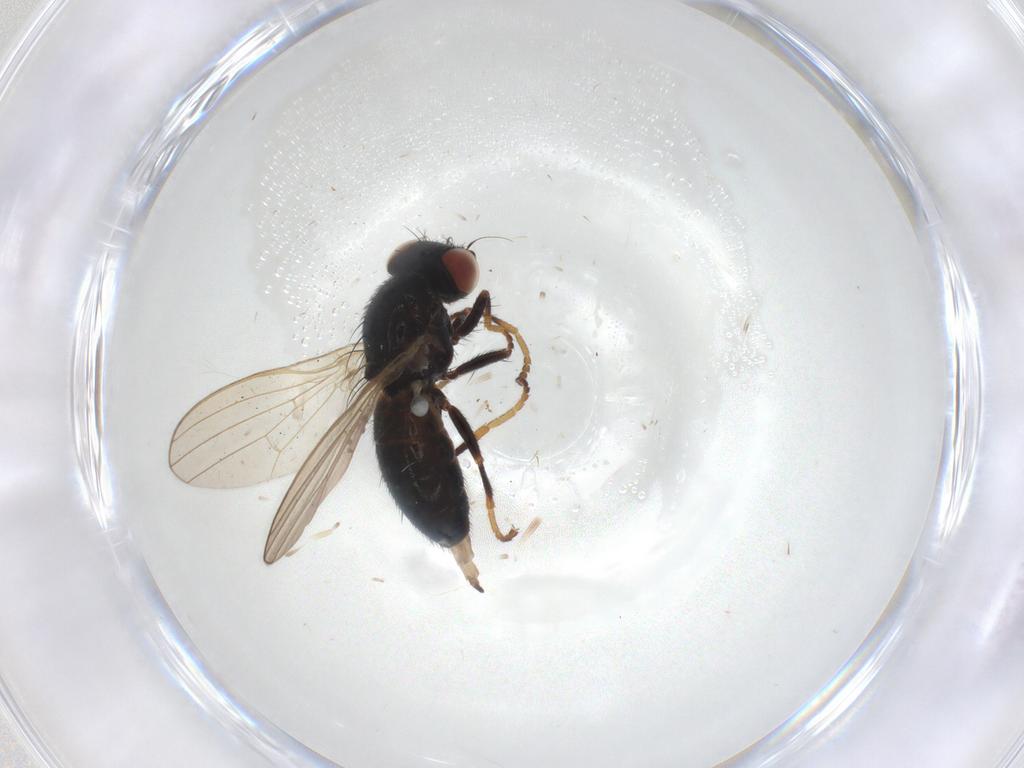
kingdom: Animalia
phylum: Arthropoda
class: Insecta
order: Diptera
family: Chamaemyiidae
